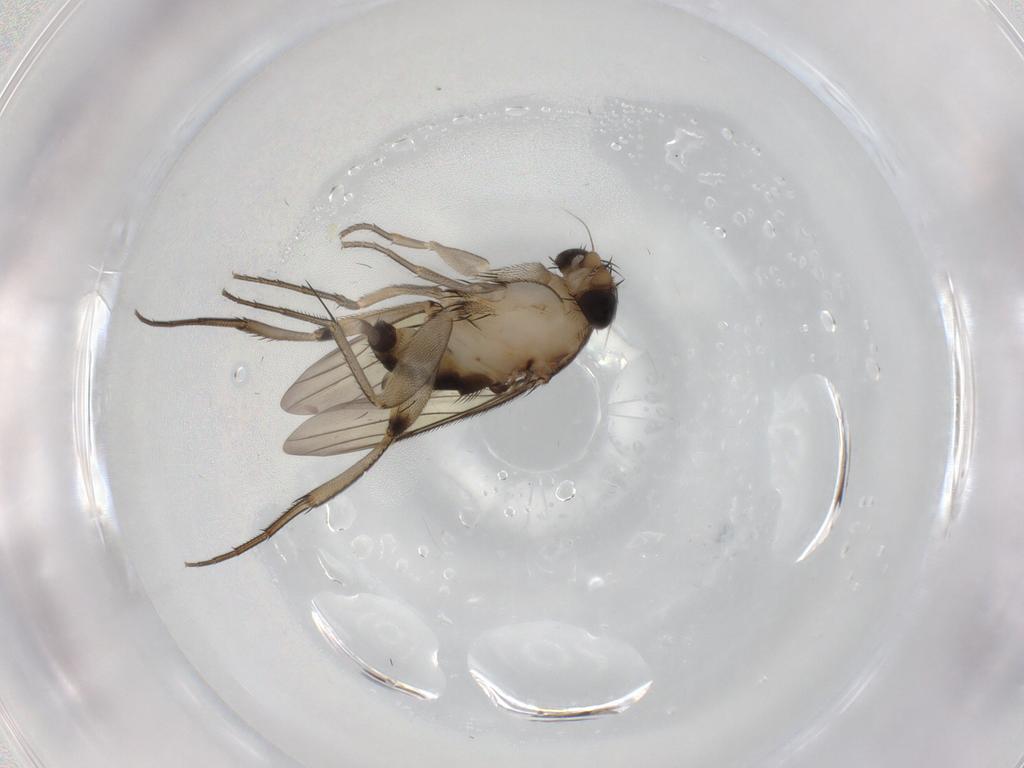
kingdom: Animalia
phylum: Arthropoda
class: Insecta
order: Diptera
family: Phoridae
